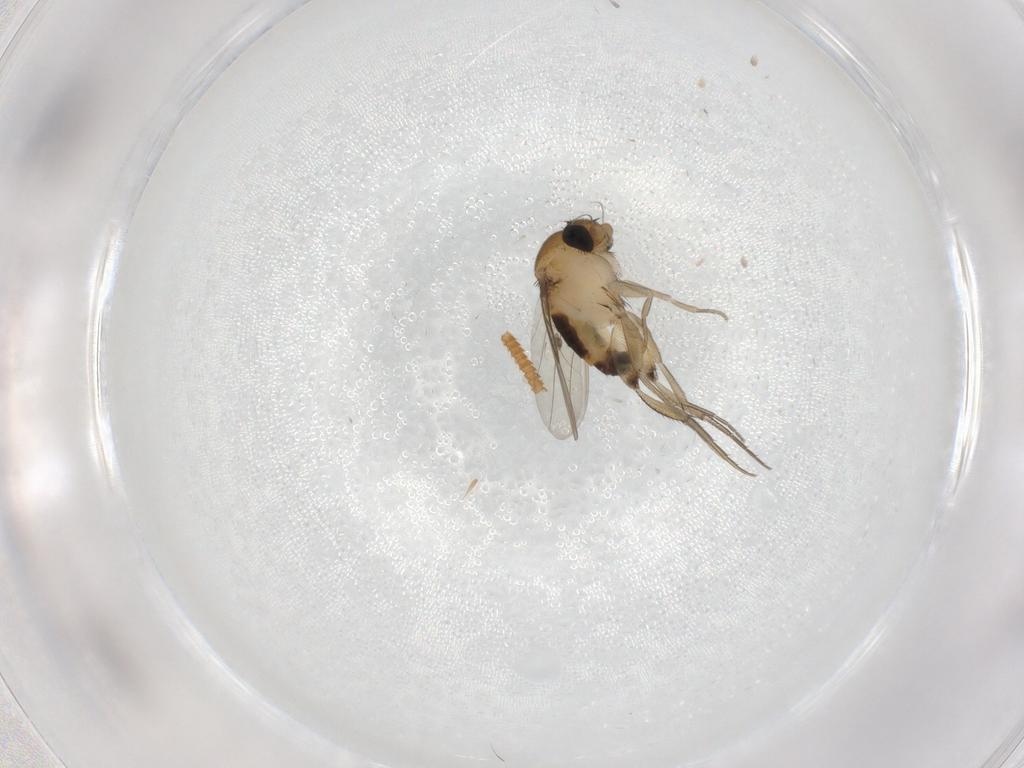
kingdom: Animalia
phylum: Arthropoda
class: Insecta
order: Diptera
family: Phoridae
